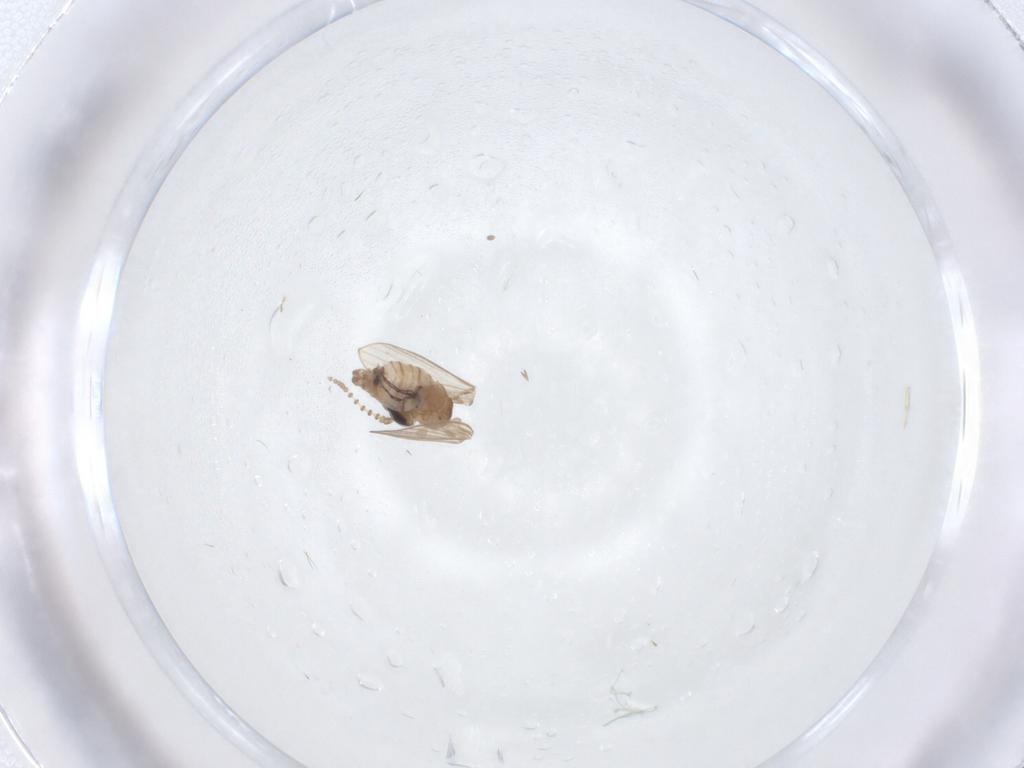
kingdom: Animalia
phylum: Arthropoda
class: Insecta
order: Diptera
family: Psychodidae
